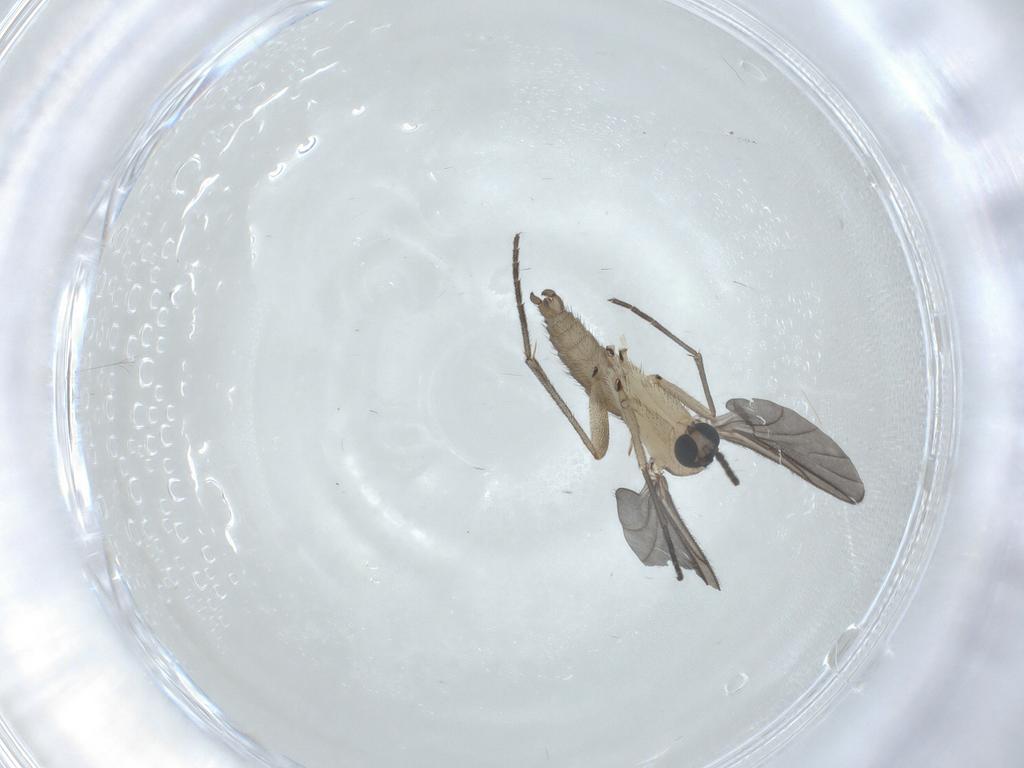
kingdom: Animalia
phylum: Arthropoda
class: Insecta
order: Diptera
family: Sciaridae
